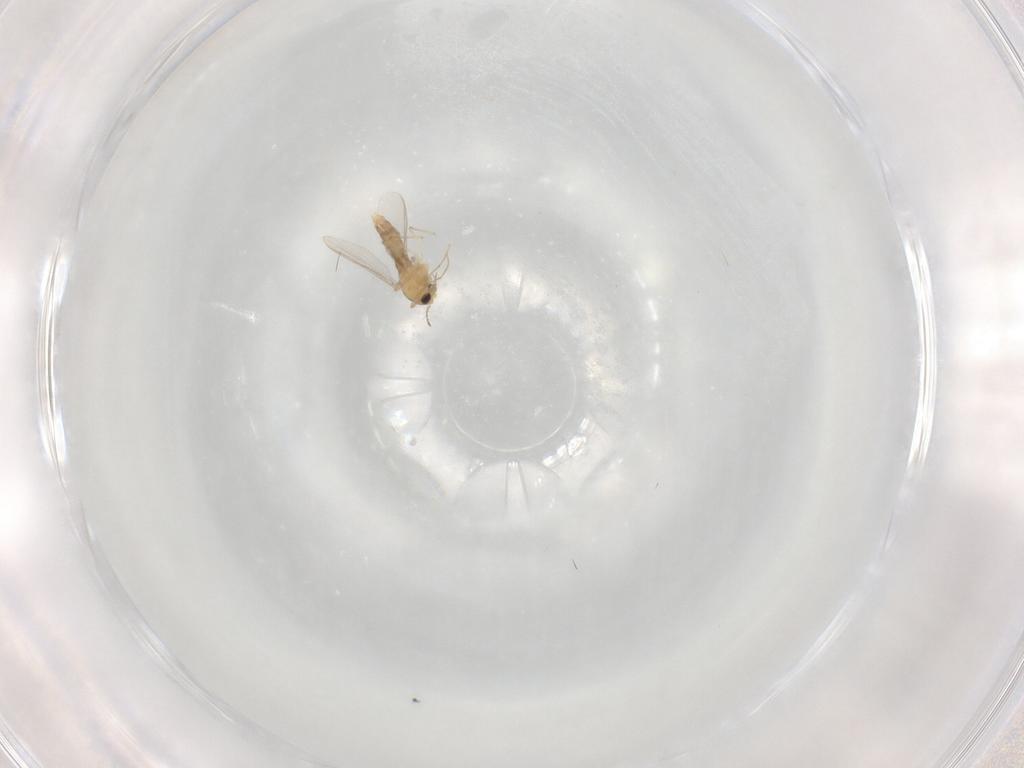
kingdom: Animalia
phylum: Arthropoda
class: Insecta
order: Diptera
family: Chironomidae
